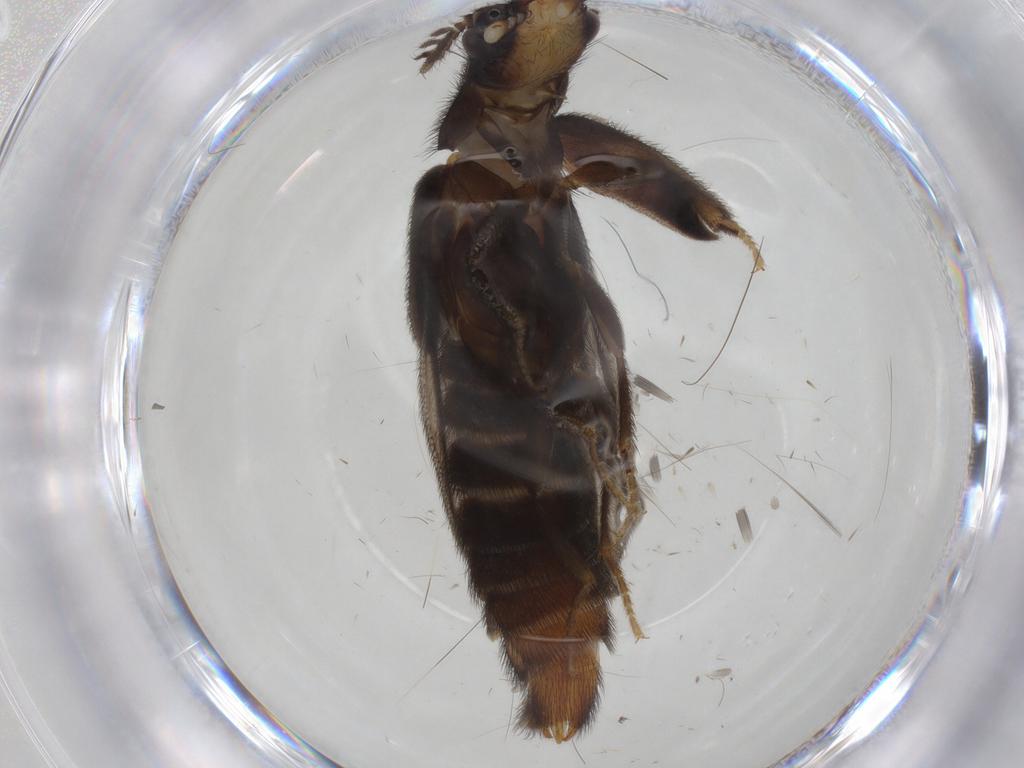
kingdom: Animalia
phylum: Arthropoda
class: Insecta
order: Coleoptera
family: Phengodidae
